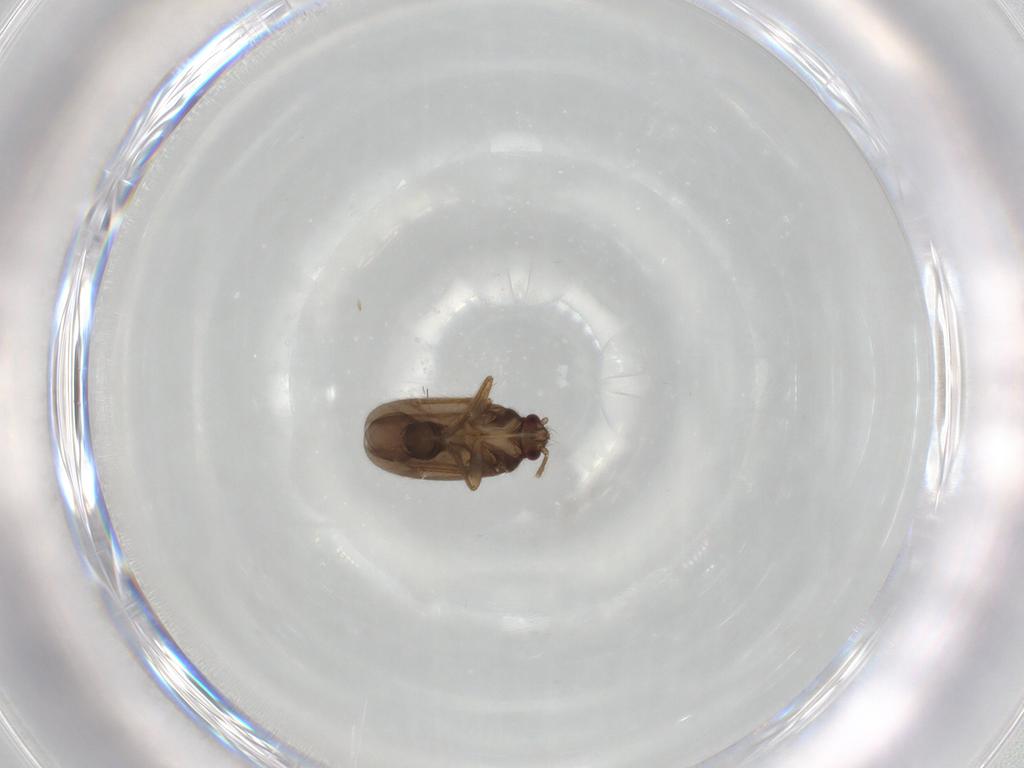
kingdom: Animalia
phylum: Arthropoda
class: Insecta
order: Hemiptera
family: Ceratocombidae
